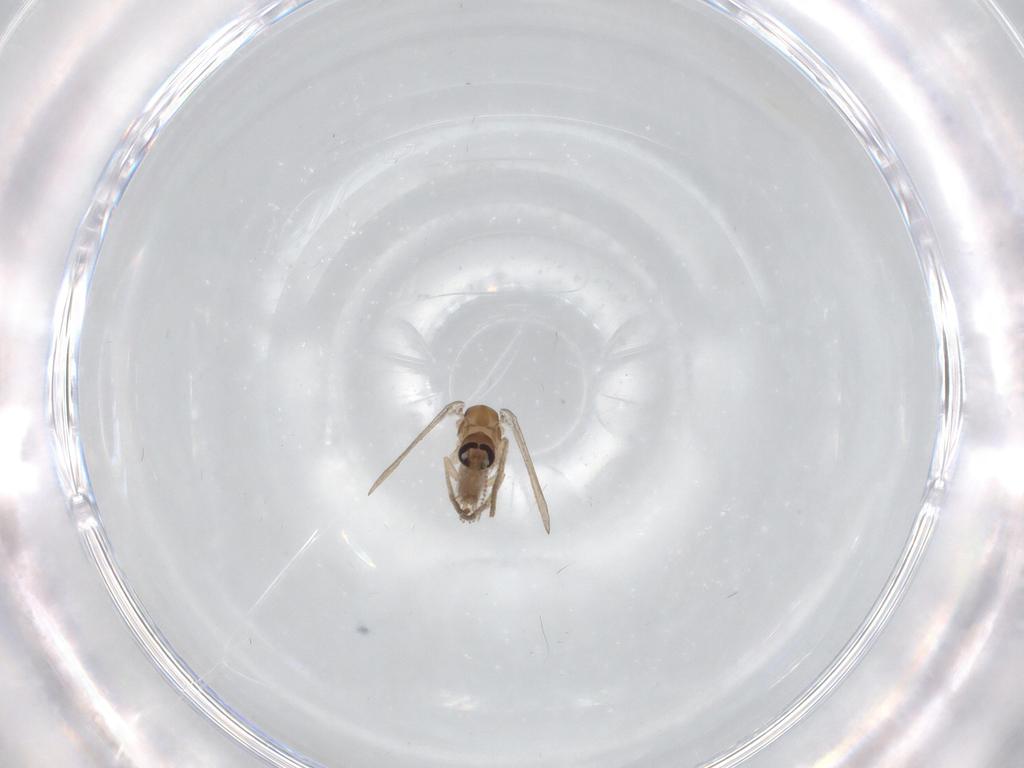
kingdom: Animalia
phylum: Arthropoda
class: Insecta
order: Diptera
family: Psychodidae
